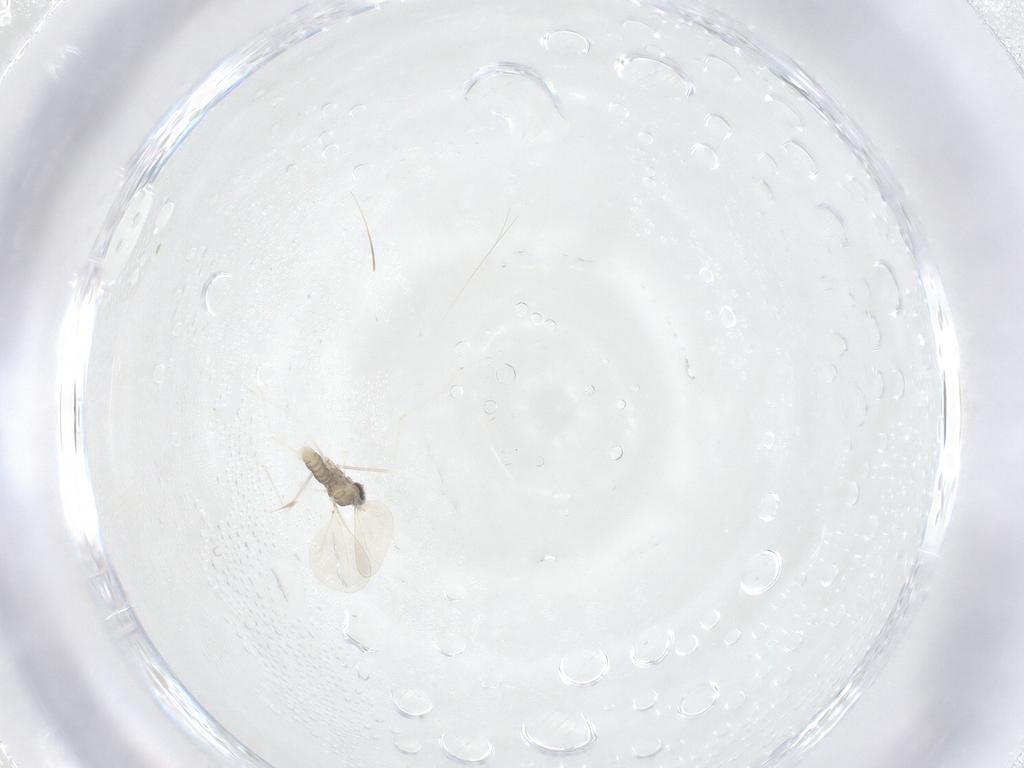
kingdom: Animalia
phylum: Arthropoda
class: Insecta
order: Diptera
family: Cecidomyiidae
